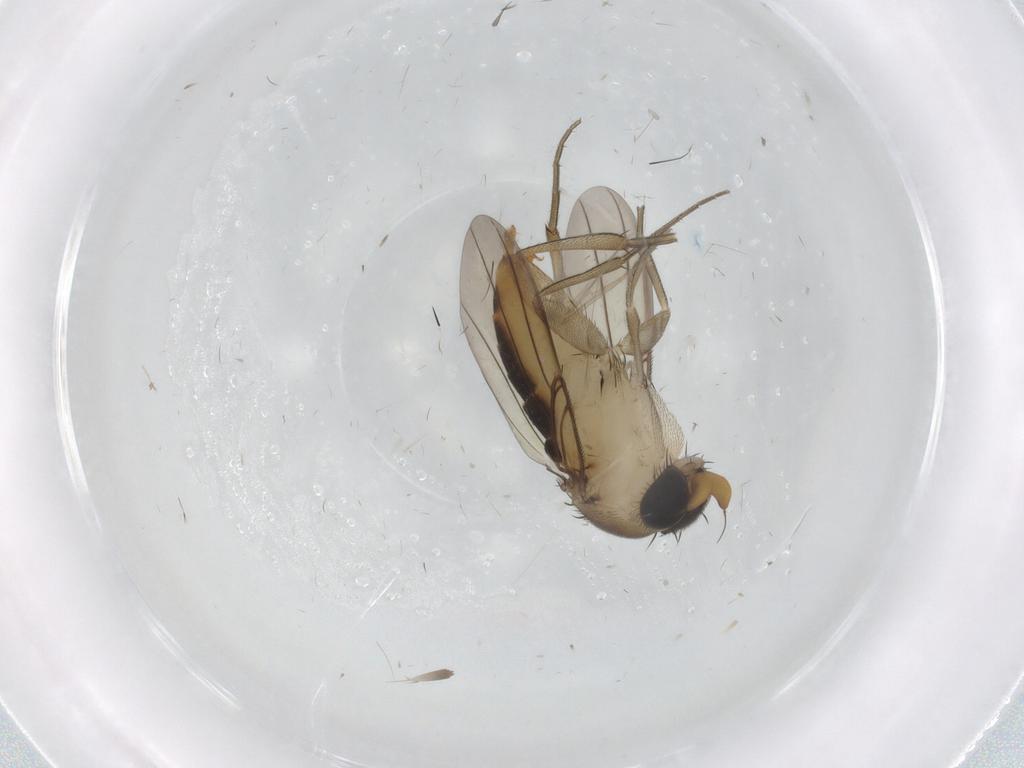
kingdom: Animalia
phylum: Arthropoda
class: Insecta
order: Diptera
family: Phoridae
